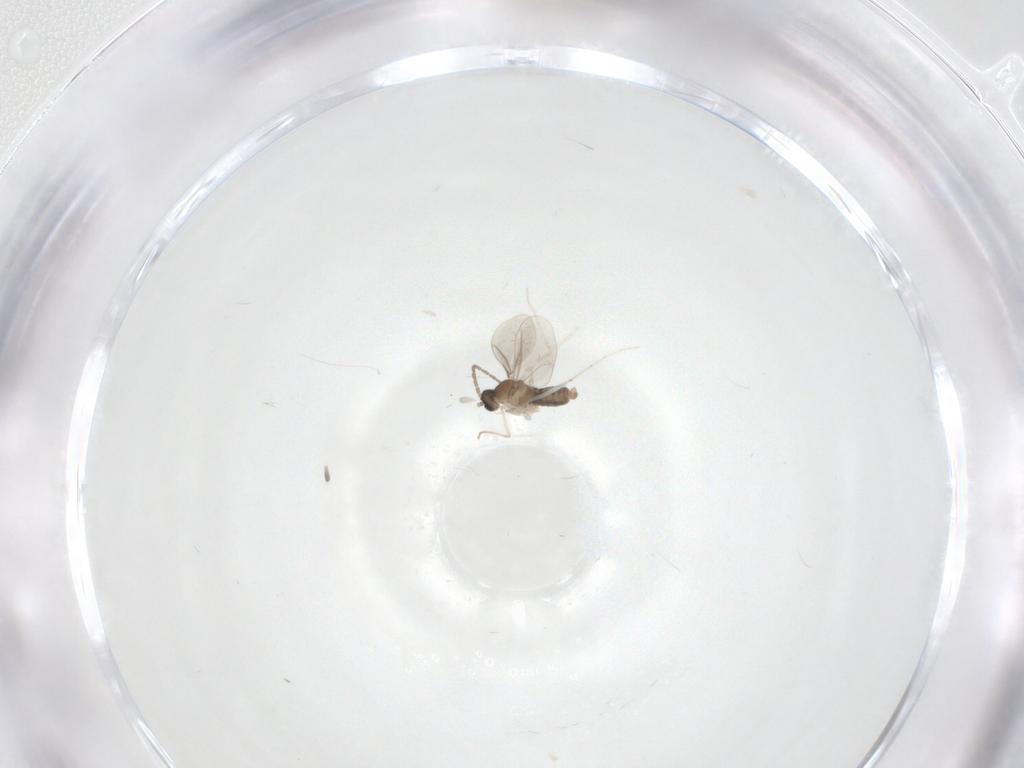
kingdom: Animalia
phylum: Arthropoda
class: Insecta
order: Diptera
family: Cecidomyiidae
